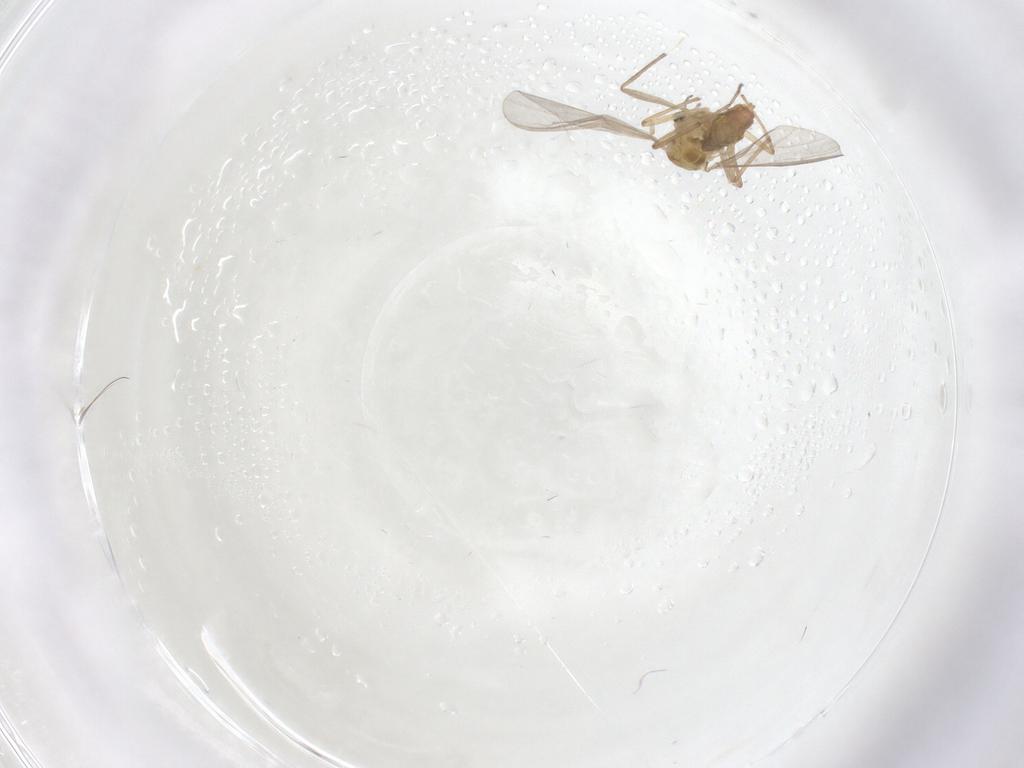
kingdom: Animalia
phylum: Arthropoda
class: Insecta
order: Diptera
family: Chironomidae
